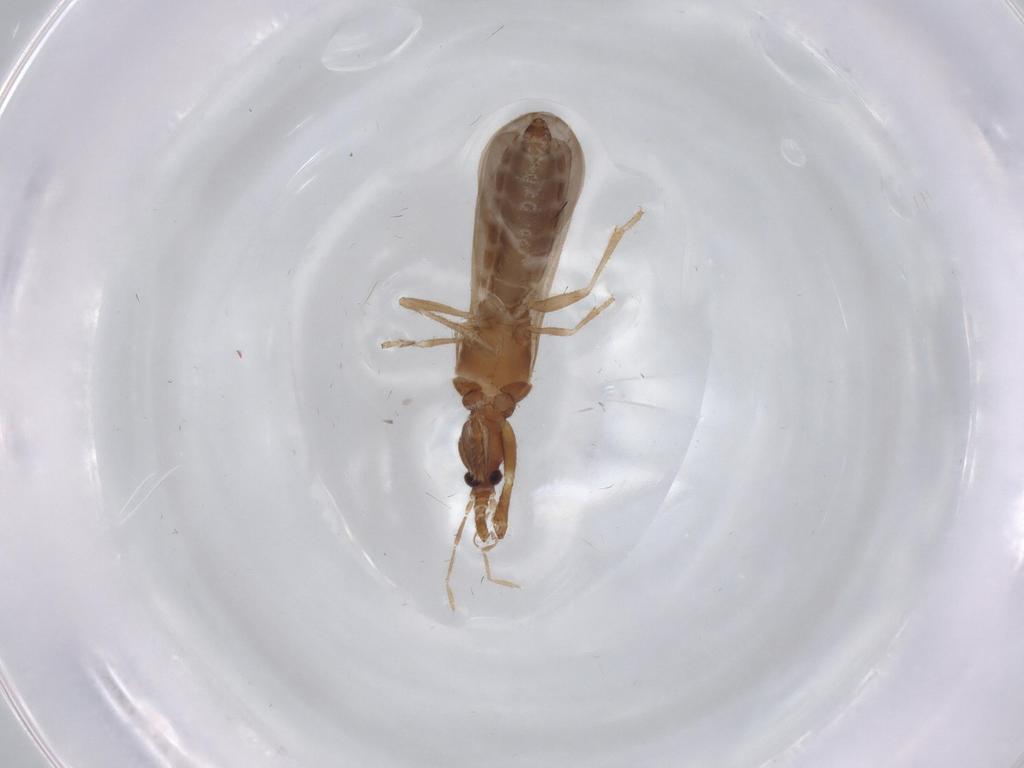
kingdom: Animalia
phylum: Arthropoda
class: Insecta
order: Hemiptera
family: Enicocephalidae
